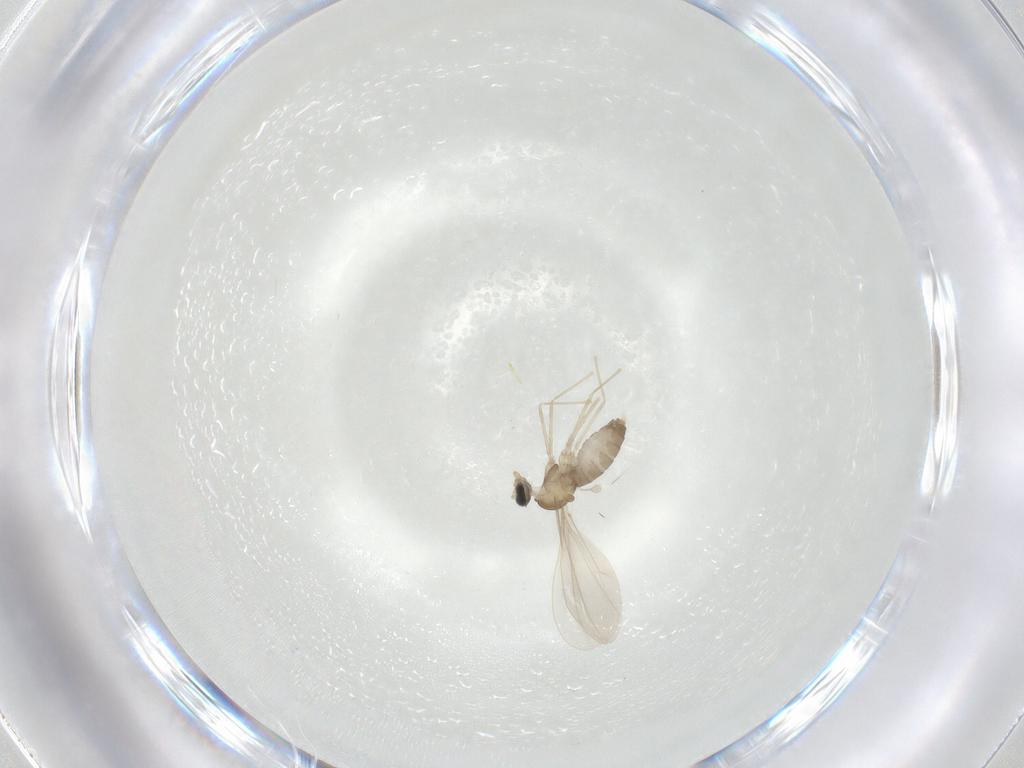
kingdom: Animalia
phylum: Arthropoda
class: Insecta
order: Diptera
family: Cecidomyiidae
